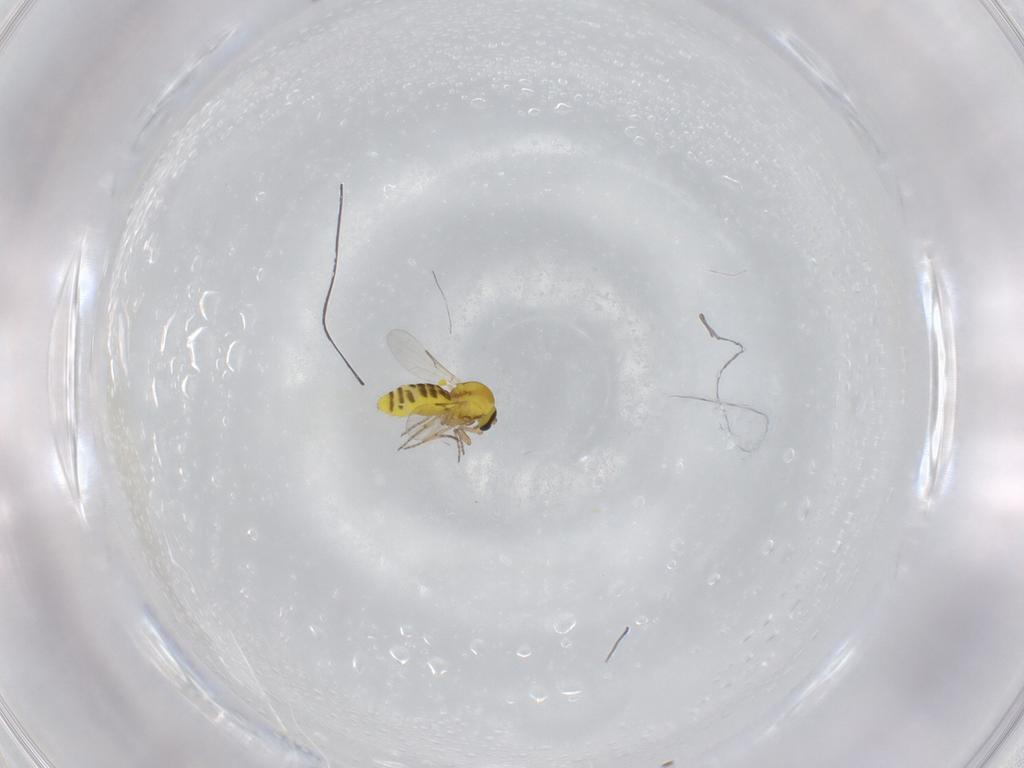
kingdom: Animalia
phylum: Arthropoda
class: Insecta
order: Diptera
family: Ceratopogonidae
